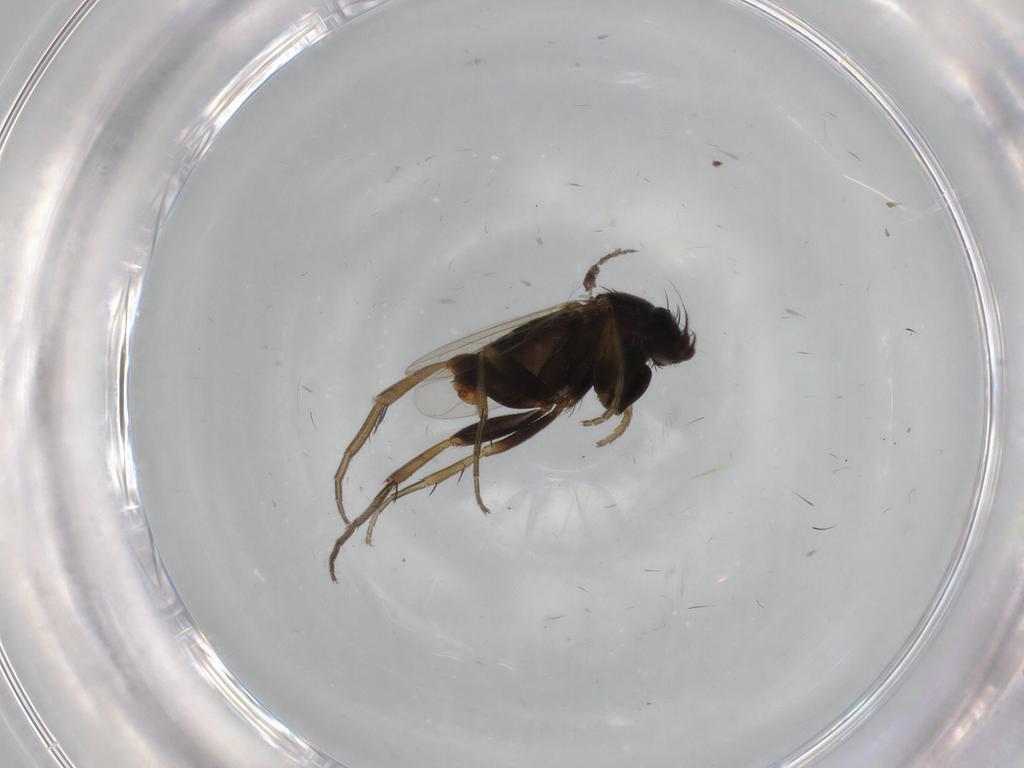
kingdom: Animalia
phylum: Arthropoda
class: Insecta
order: Diptera
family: Phoridae
